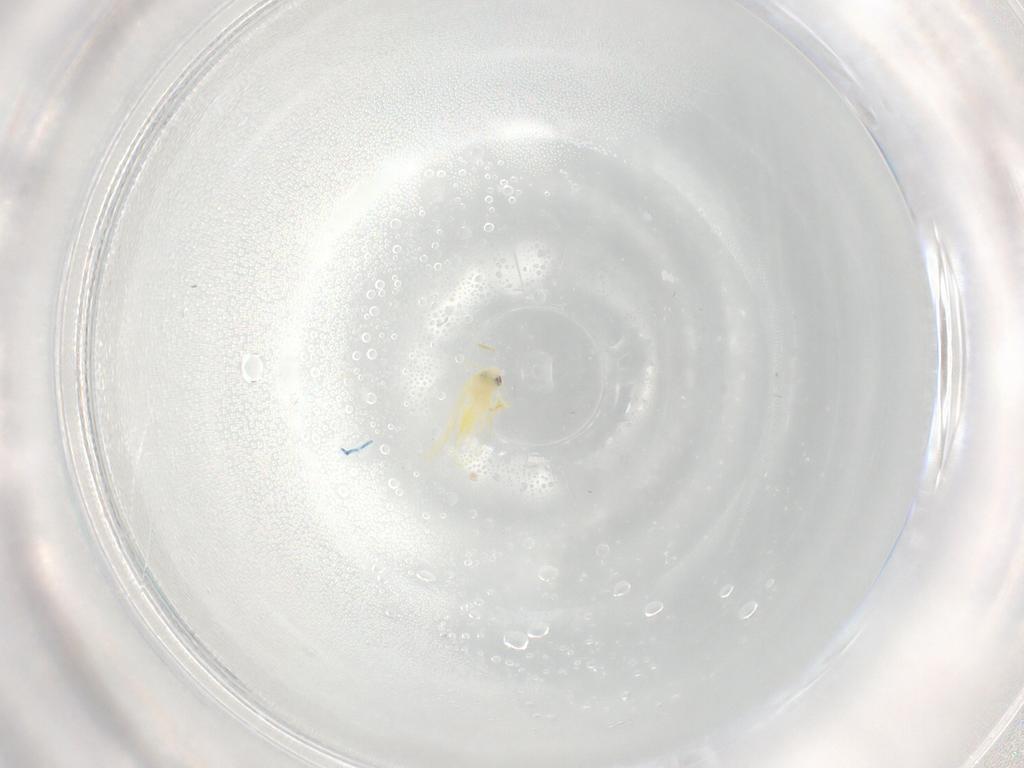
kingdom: Animalia
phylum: Arthropoda
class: Insecta
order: Hemiptera
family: Aleyrodidae
